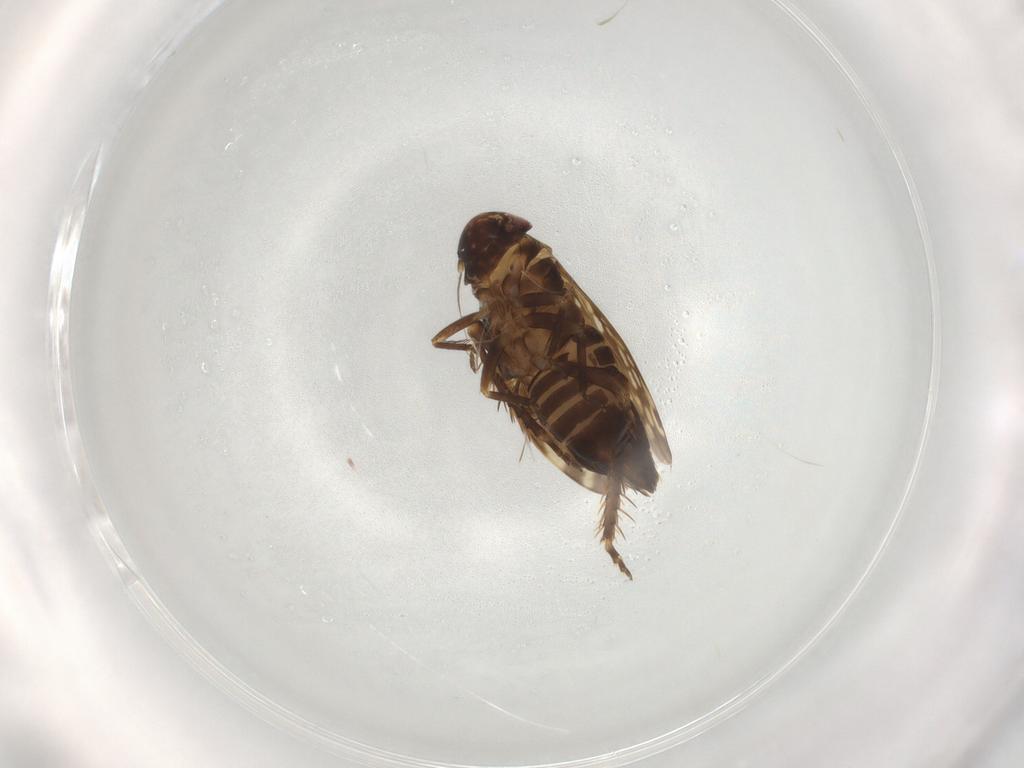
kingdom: Animalia
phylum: Arthropoda
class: Insecta
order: Hemiptera
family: Cicadellidae
